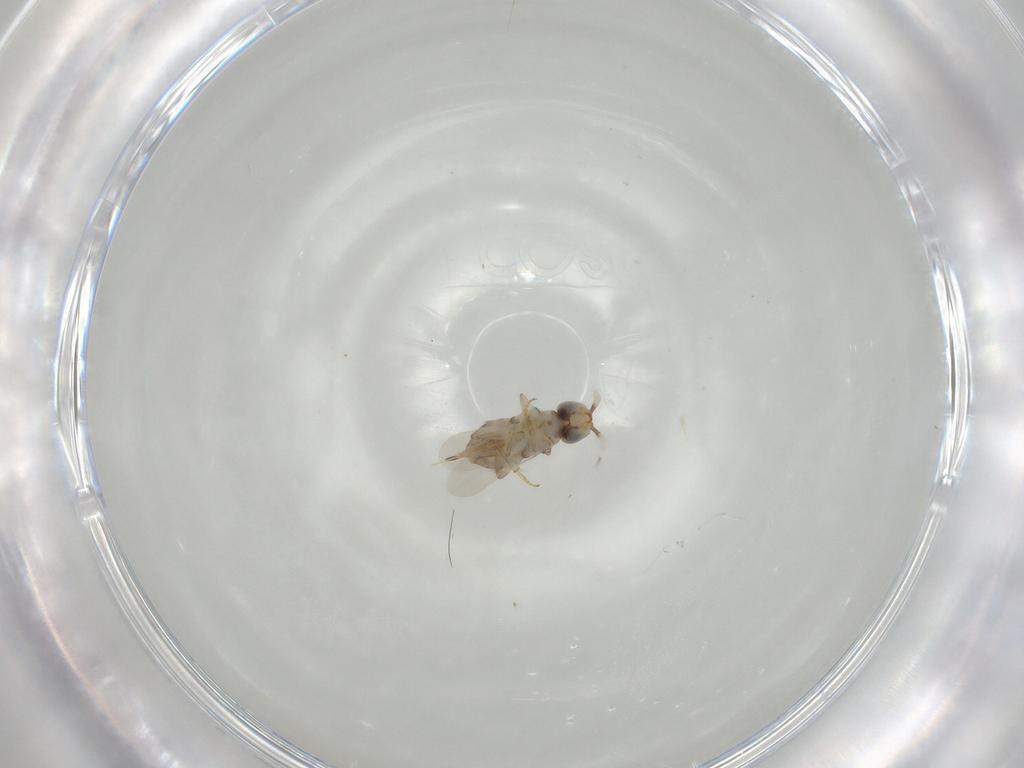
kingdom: Animalia
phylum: Arthropoda
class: Insecta
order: Hymenoptera
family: Encyrtidae
